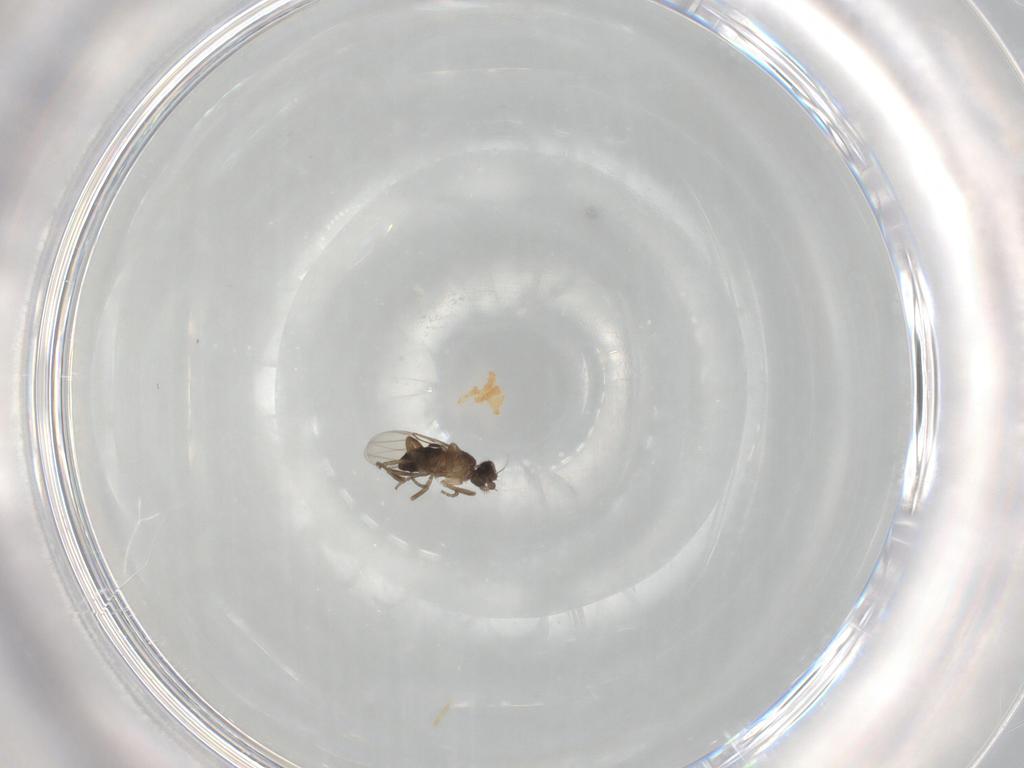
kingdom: Animalia
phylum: Arthropoda
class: Insecta
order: Diptera
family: Phoridae
